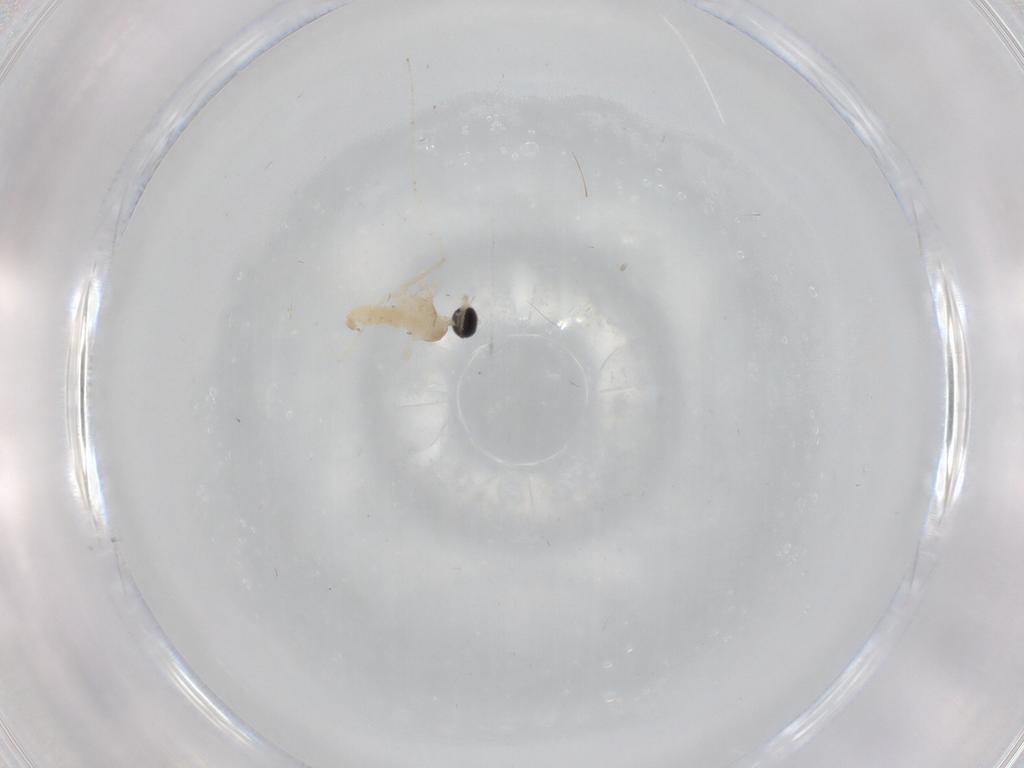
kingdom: Animalia
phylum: Arthropoda
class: Insecta
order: Diptera
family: Cecidomyiidae
